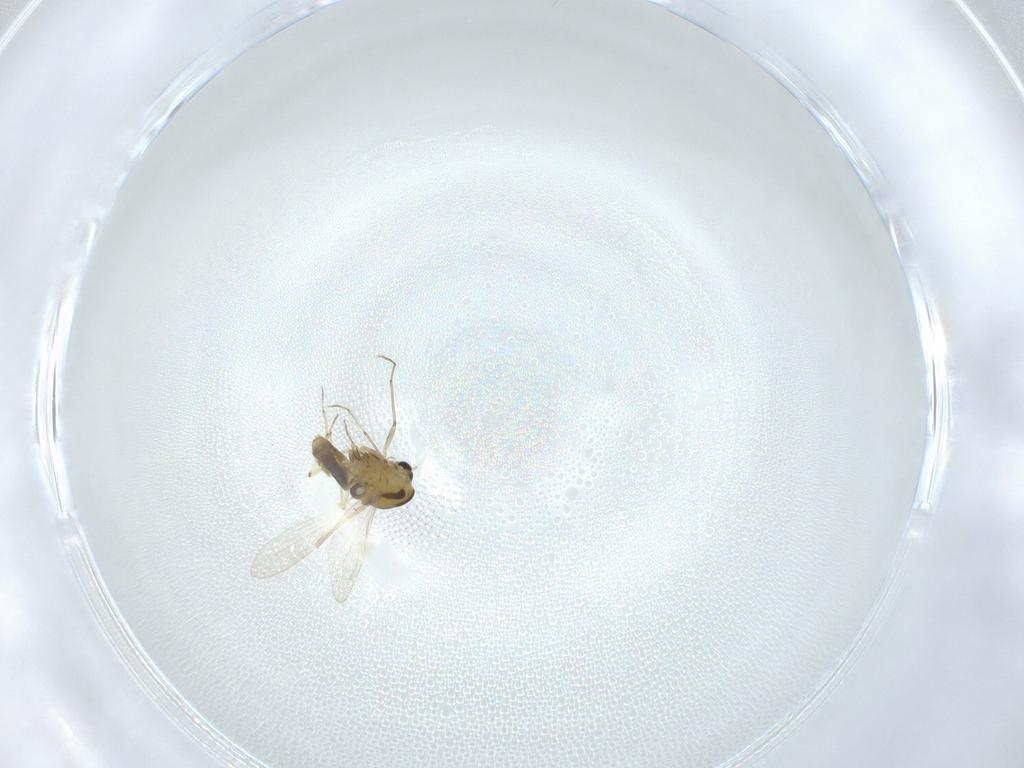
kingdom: Animalia
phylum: Arthropoda
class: Insecta
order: Diptera
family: Chironomidae
